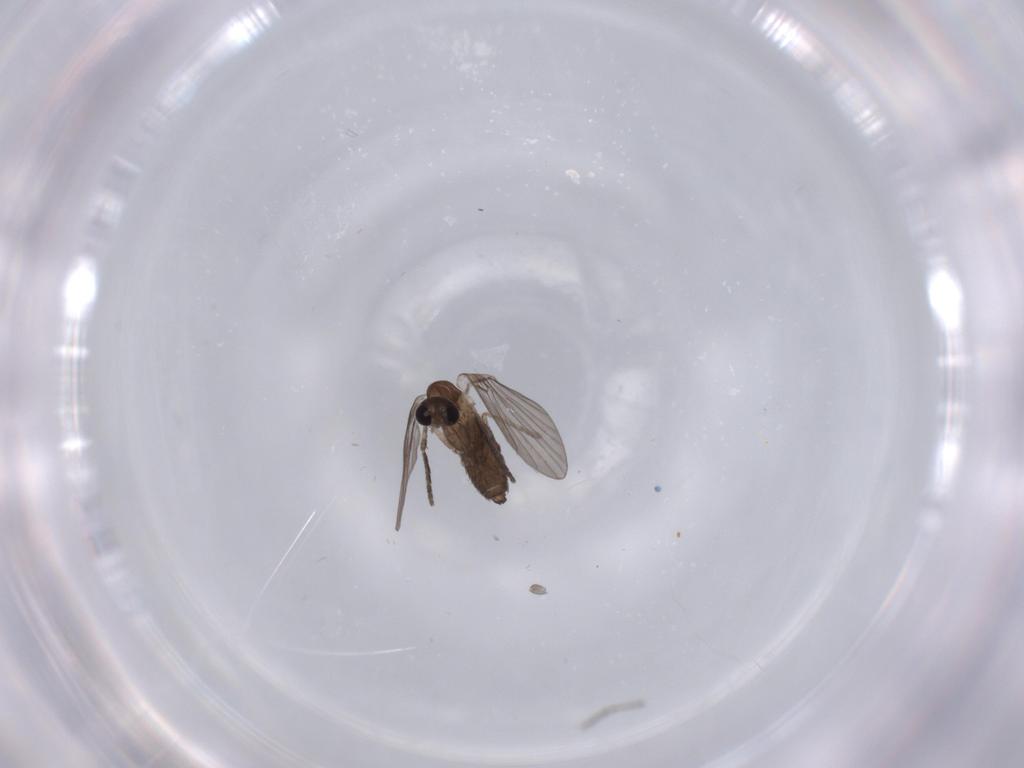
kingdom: Animalia
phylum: Arthropoda
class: Insecta
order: Diptera
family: Psychodidae
